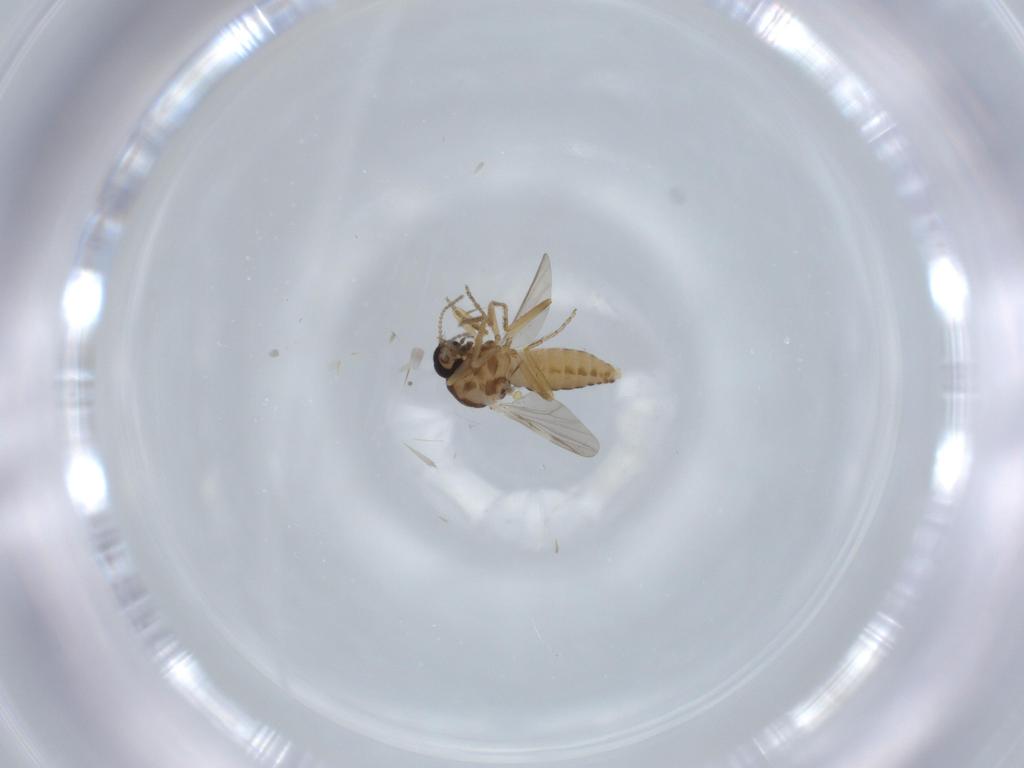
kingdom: Animalia
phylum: Arthropoda
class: Insecta
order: Diptera
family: Ceratopogonidae
